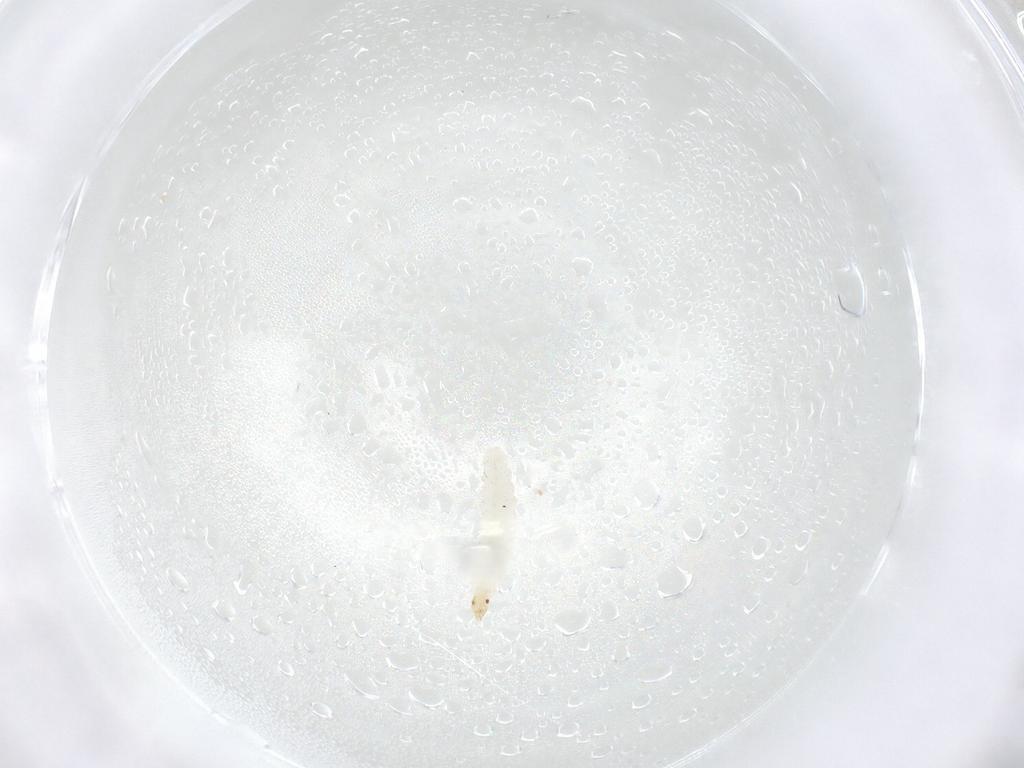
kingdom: Animalia
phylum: Arthropoda
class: Insecta
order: Diptera
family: Stratiomyidae
